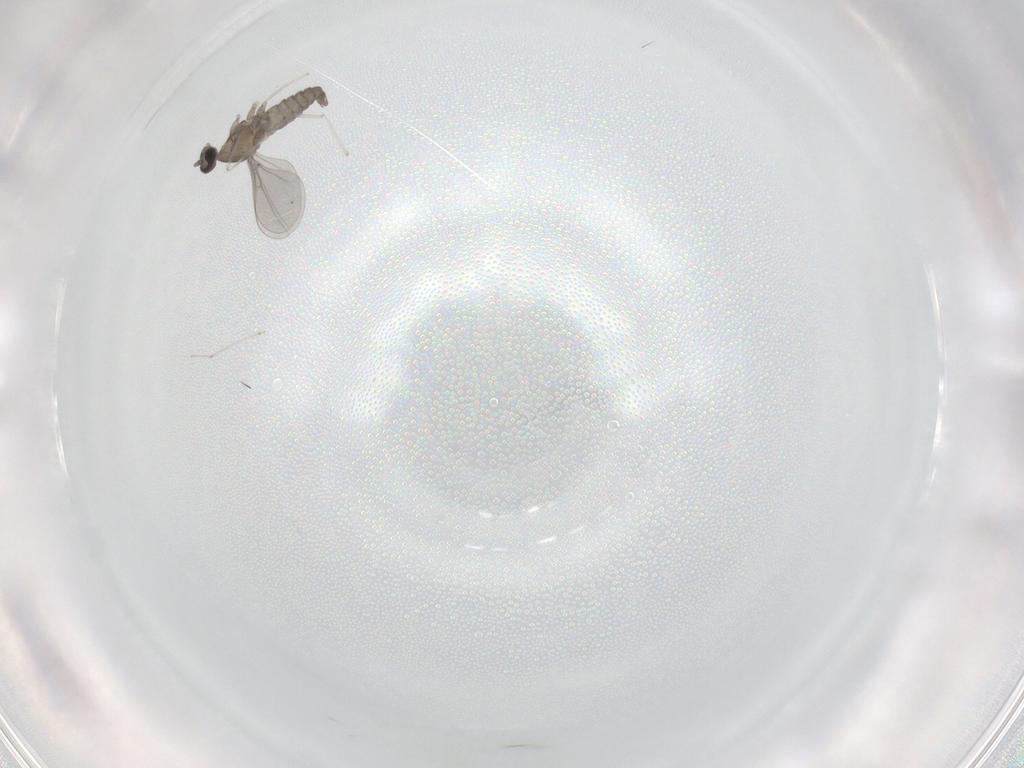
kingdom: Animalia
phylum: Arthropoda
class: Insecta
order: Diptera
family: Cecidomyiidae
